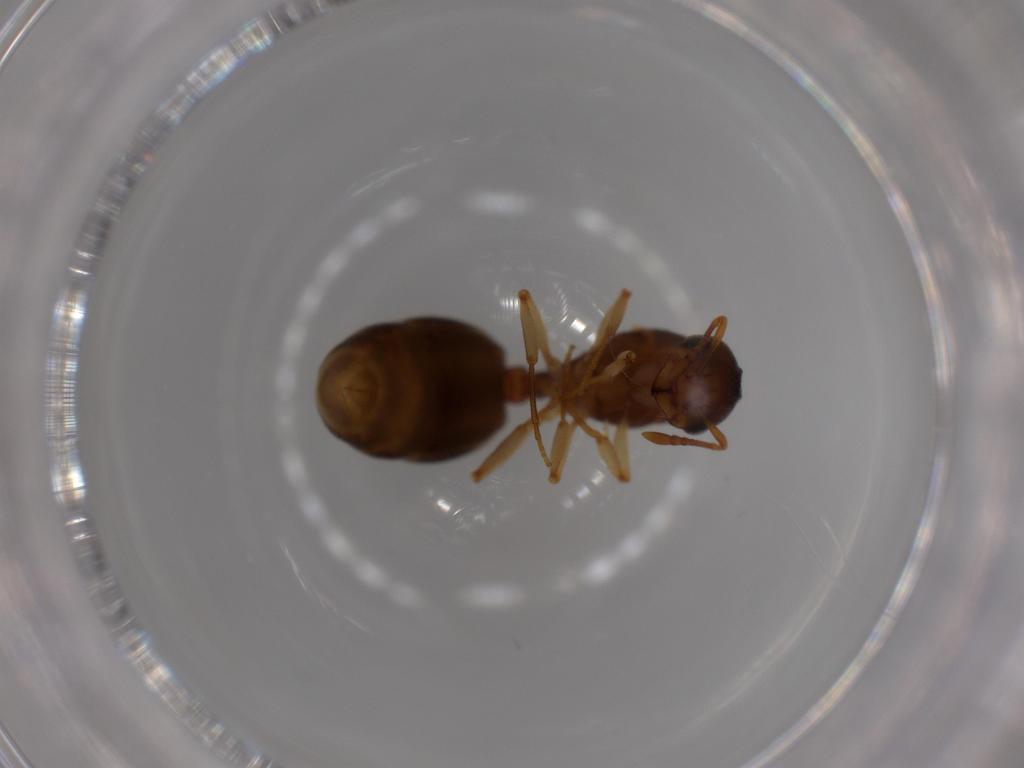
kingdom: Animalia
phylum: Arthropoda
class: Insecta
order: Hymenoptera
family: Formicidae
